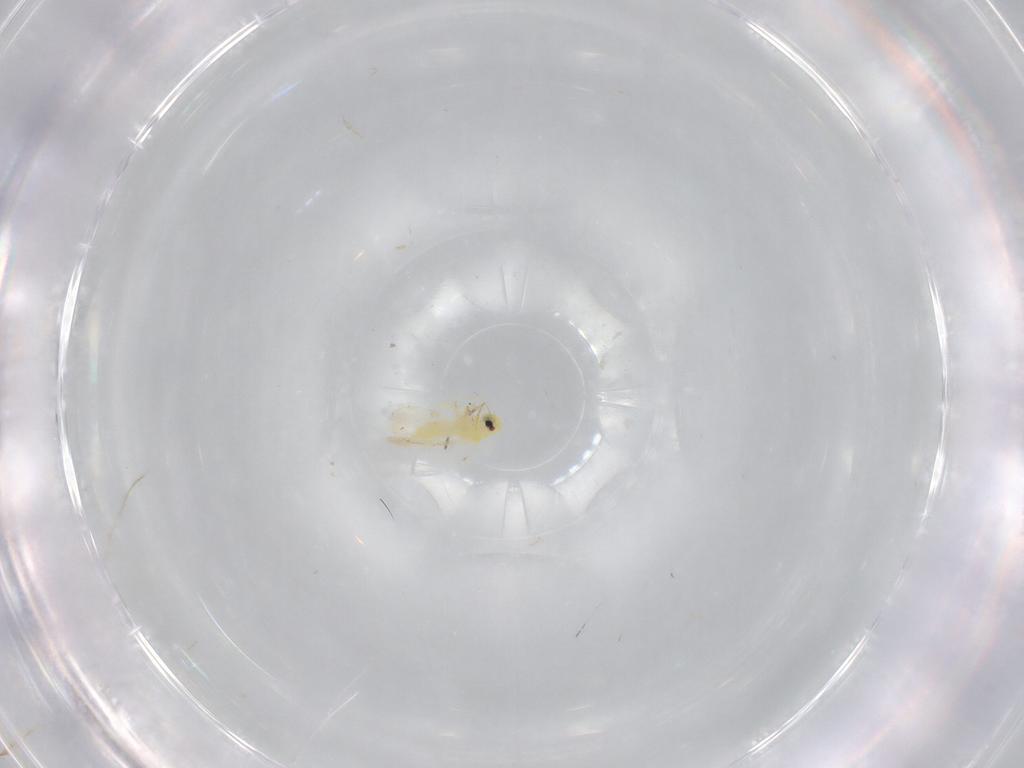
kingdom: Animalia
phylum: Arthropoda
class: Insecta
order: Hemiptera
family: Aleyrodidae
